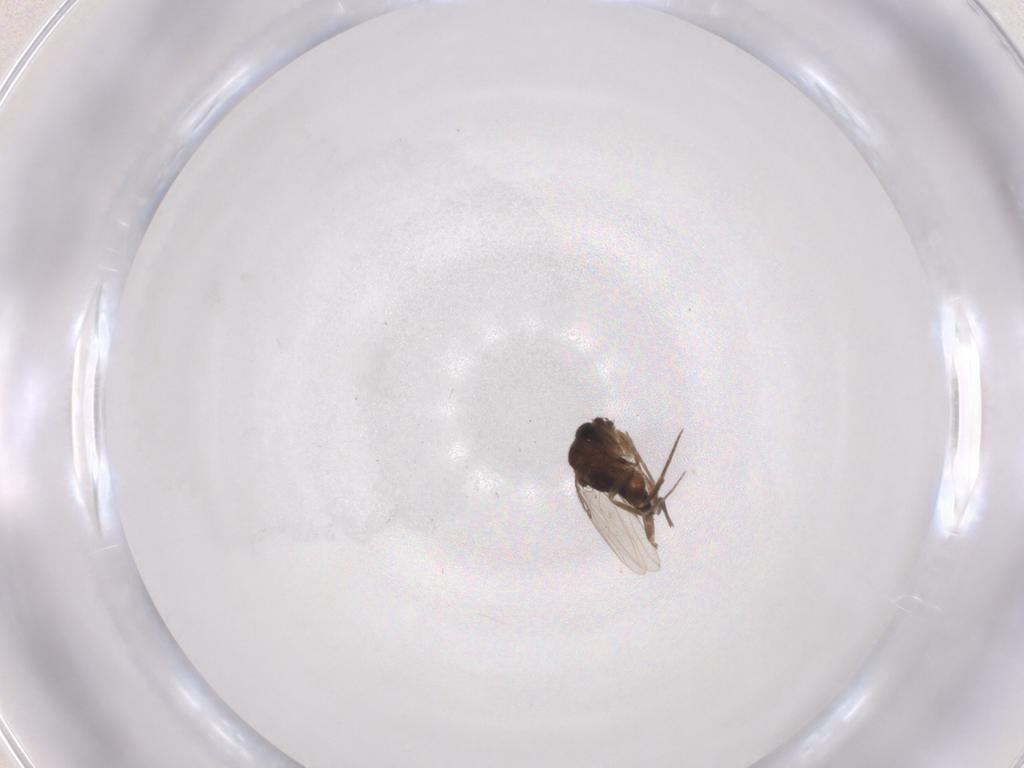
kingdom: Animalia
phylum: Arthropoda
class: Insecta
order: Diptera
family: Phoridae
